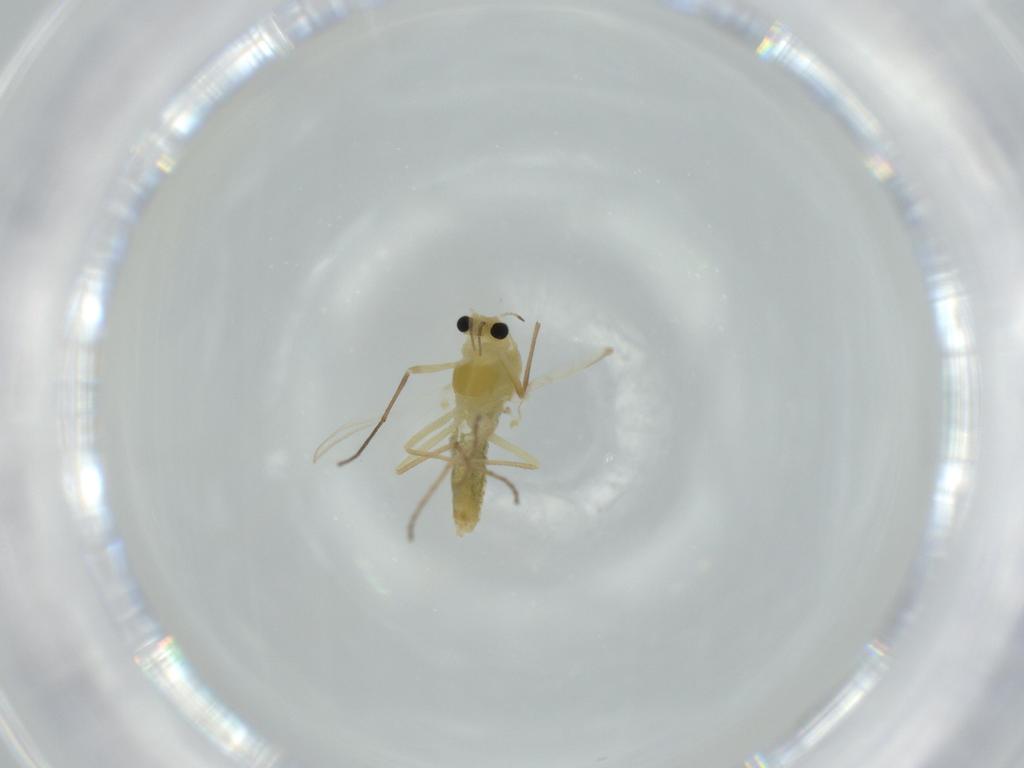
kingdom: Animalia
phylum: Arthropoda
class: Insecta
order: Diptera
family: Chironomidae
